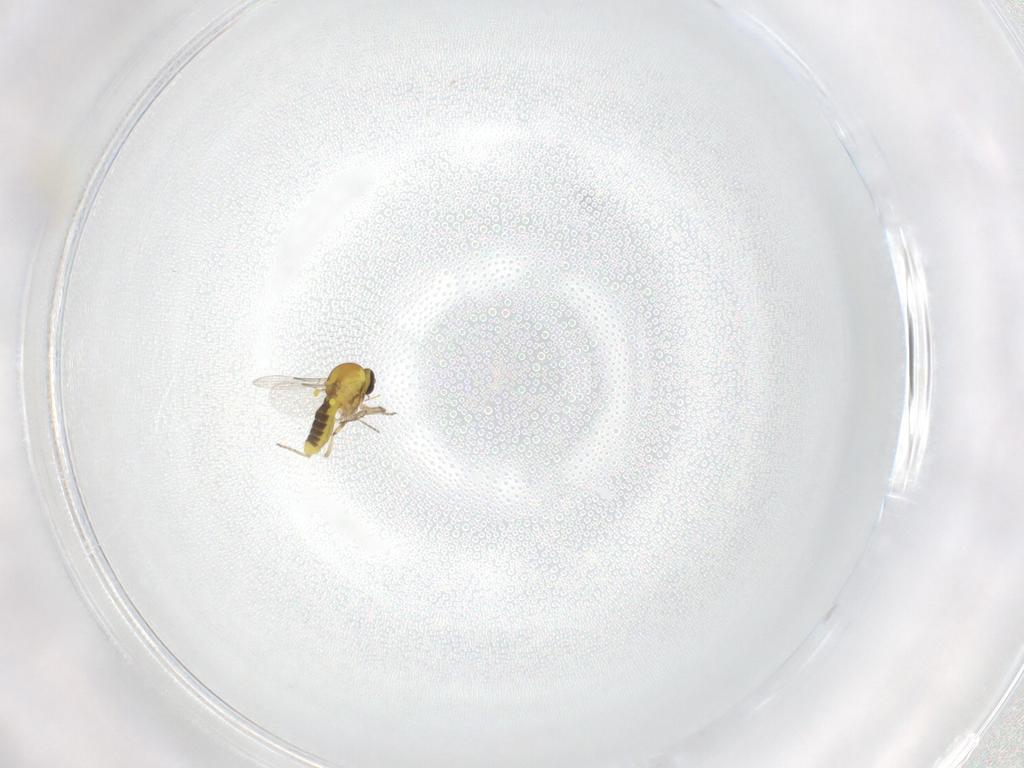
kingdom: Animalia
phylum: Arthropoda
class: Insecta
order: Diptera
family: Ceratopogonidae
